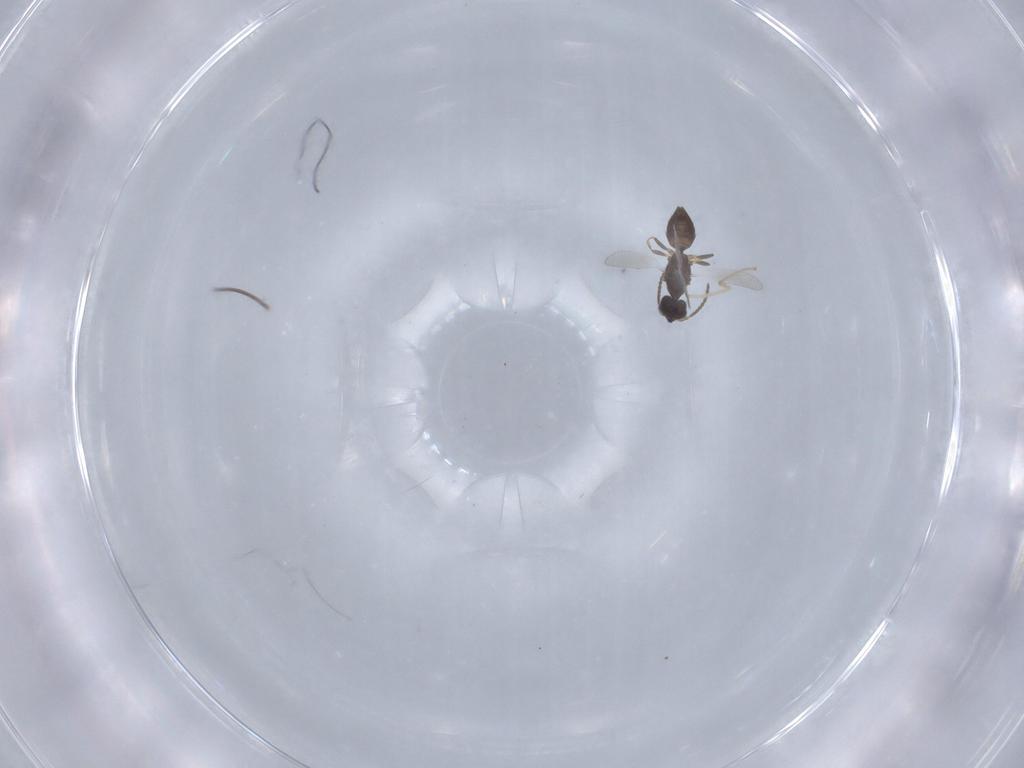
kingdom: Animalia
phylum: Arthropoda
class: Insecta
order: Hymenoptera
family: Bethylidae
